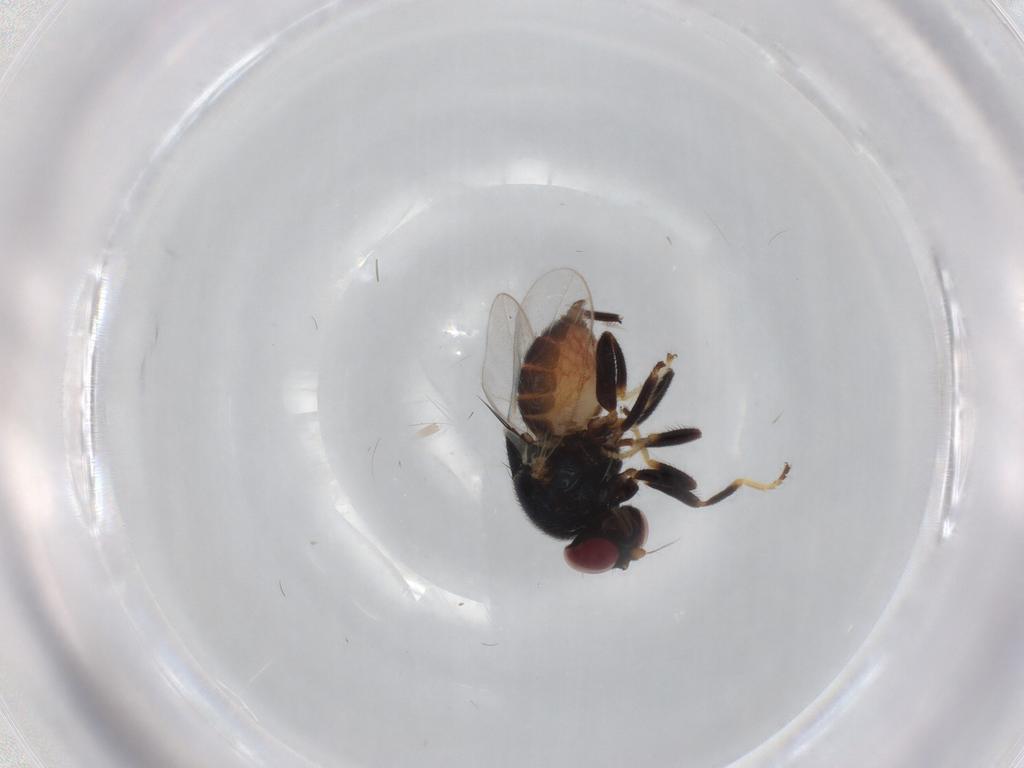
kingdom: Animalia
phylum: Arthropoda
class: Insecta
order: Diptera
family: Chloropidae
